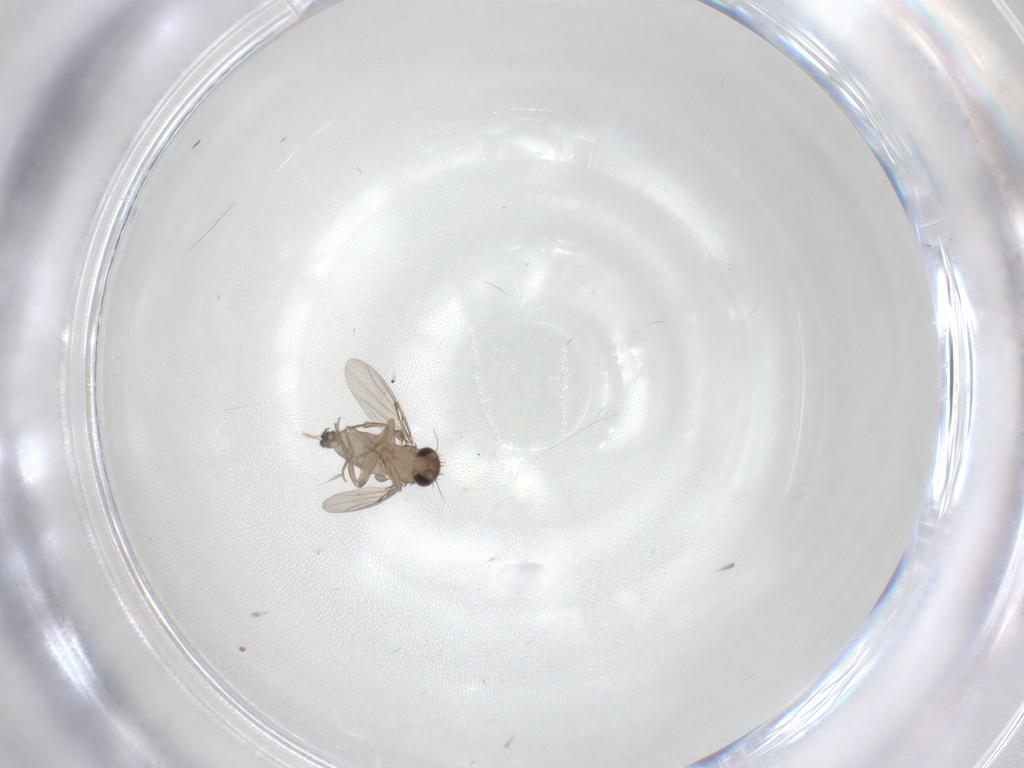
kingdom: Animalia
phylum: Arthropoda
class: Insecta
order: Diptera
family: Phoridae
